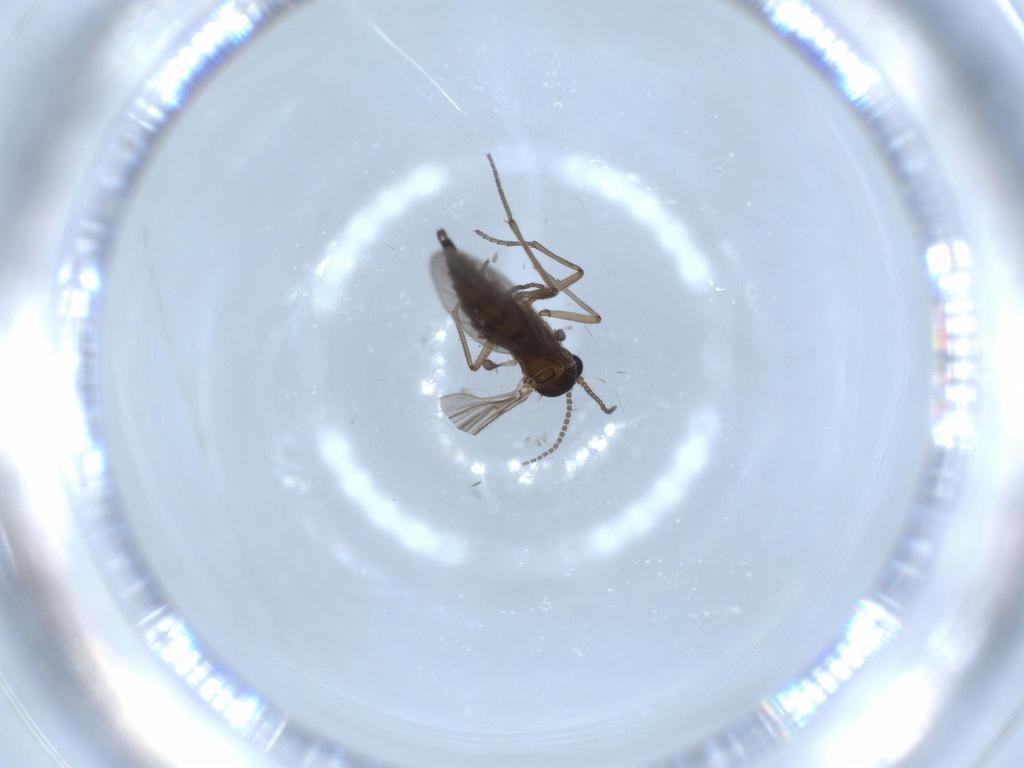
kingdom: Animalia
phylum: Arthropoda
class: Insecta
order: Diptera
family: Sciaridae
